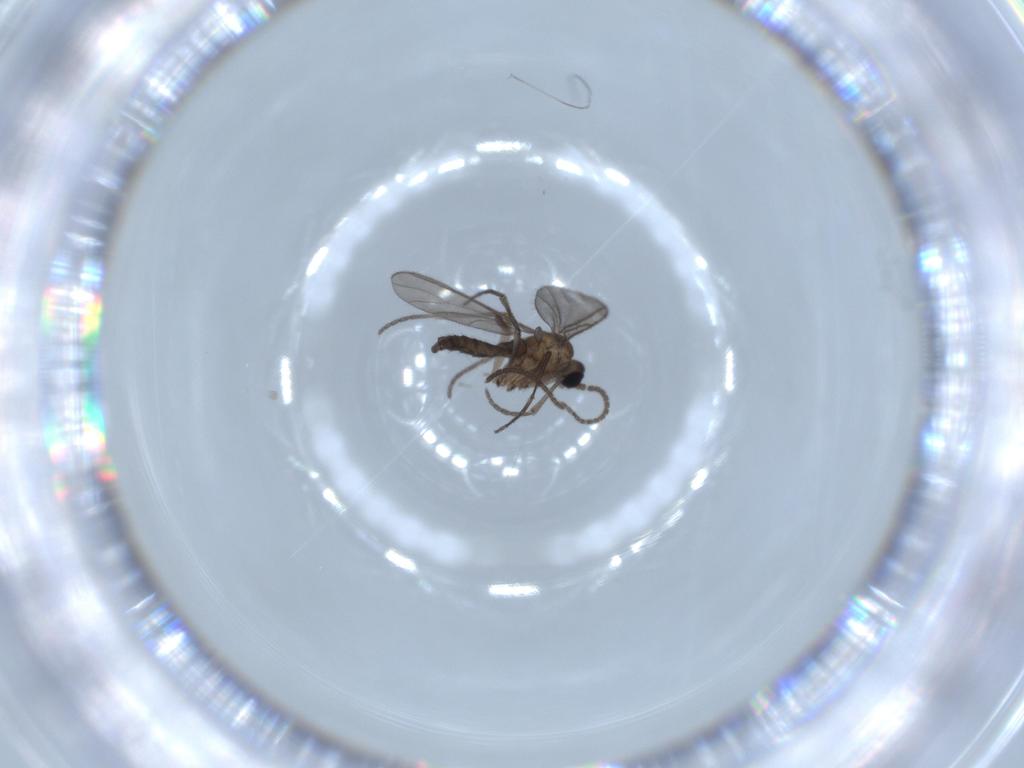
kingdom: Animalia
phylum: Arthropoda
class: Insecta
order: Diptera
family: Sciaridae
